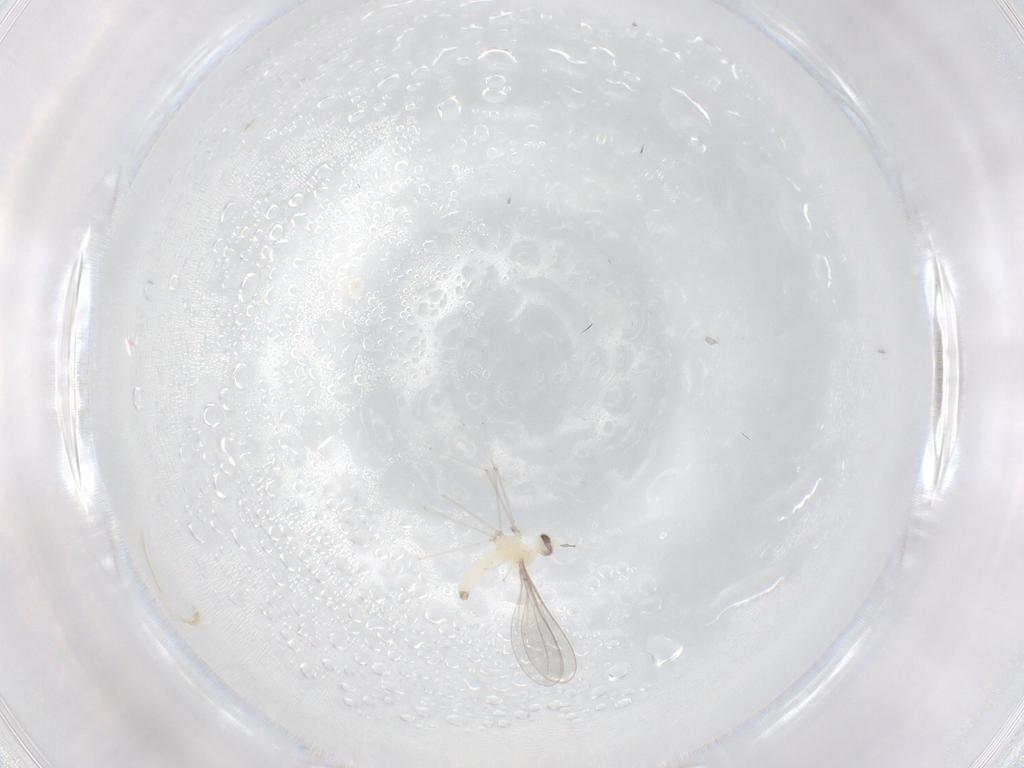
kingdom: Animalia
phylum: Arthropoda
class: Insecta
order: Diptera
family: Cecidomyiidae
